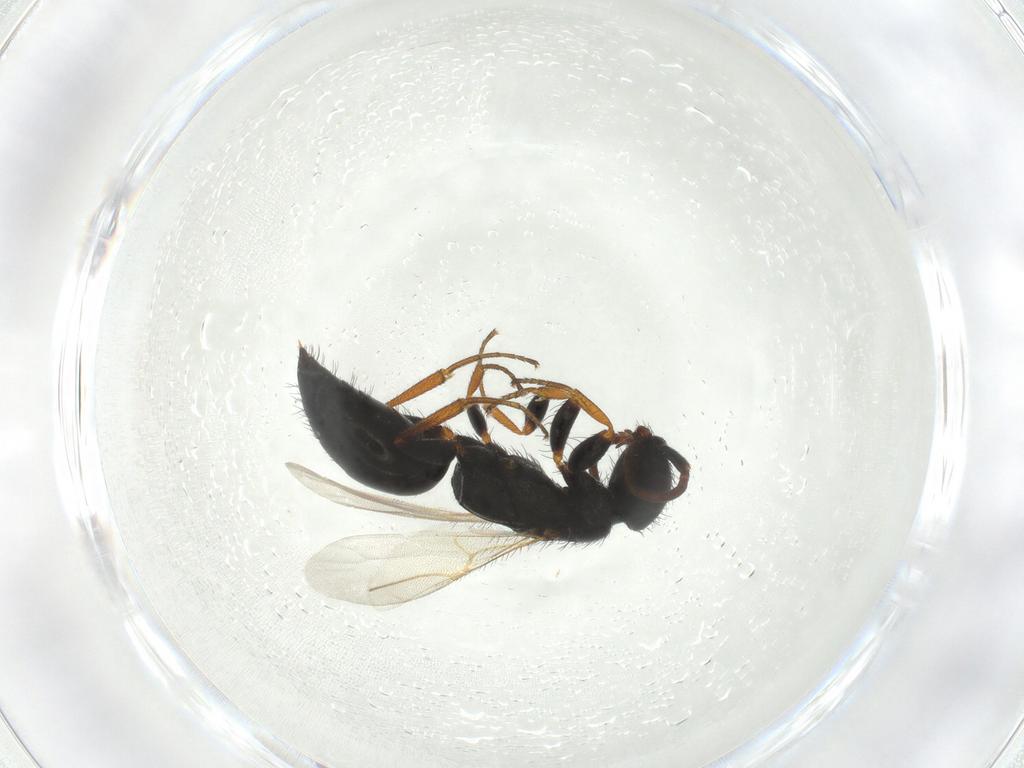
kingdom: Animalia
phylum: Arthropoda
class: Insecta
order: Hymenoptera
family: Bethylidae
